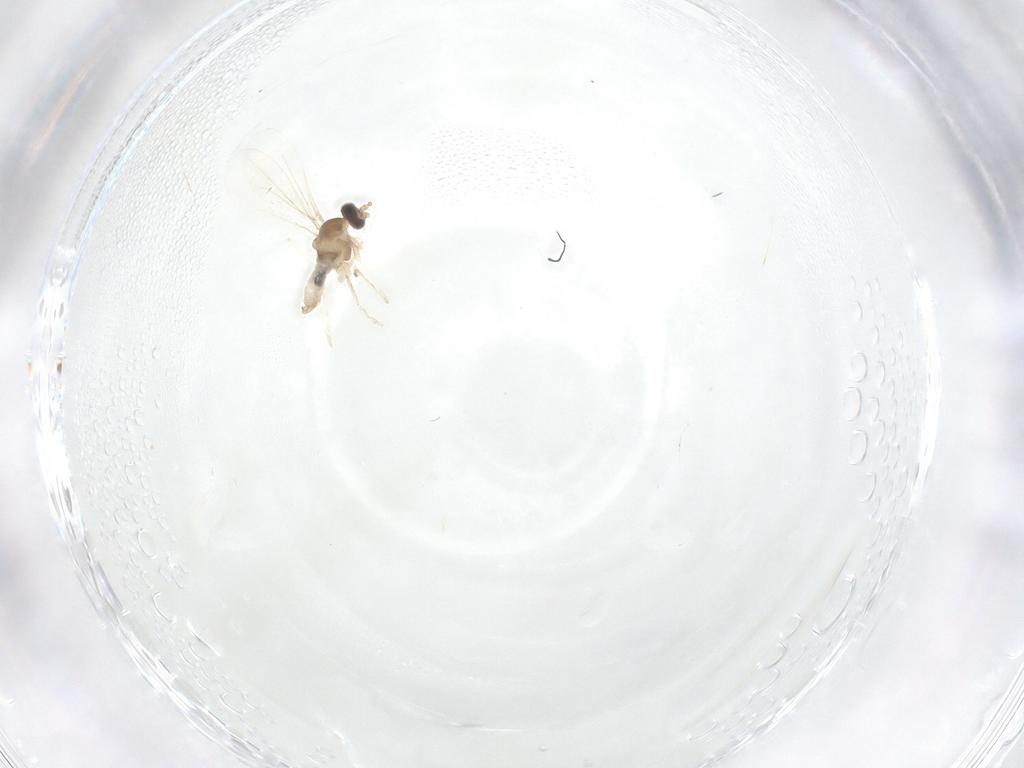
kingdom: Animalia
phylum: Arthropoda
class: Insecta
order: Diptera
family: Cecidomyiidae
